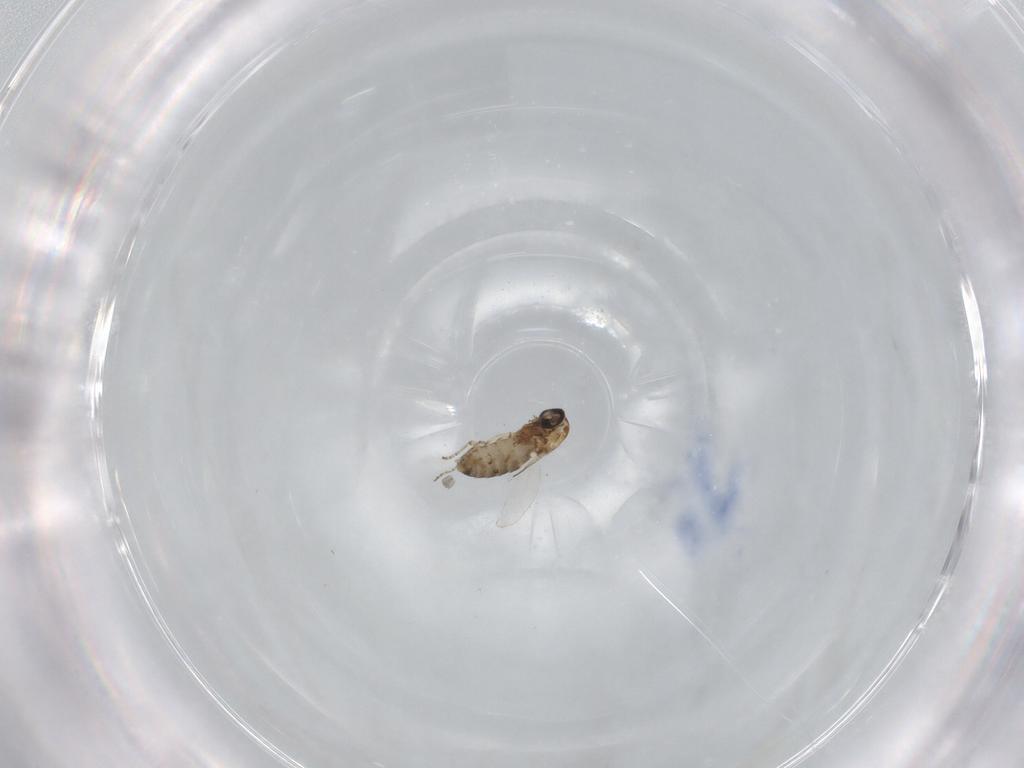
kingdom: Animalia
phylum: Arthropoda
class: Insecta
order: Diptera
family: Ceratopogonidae
